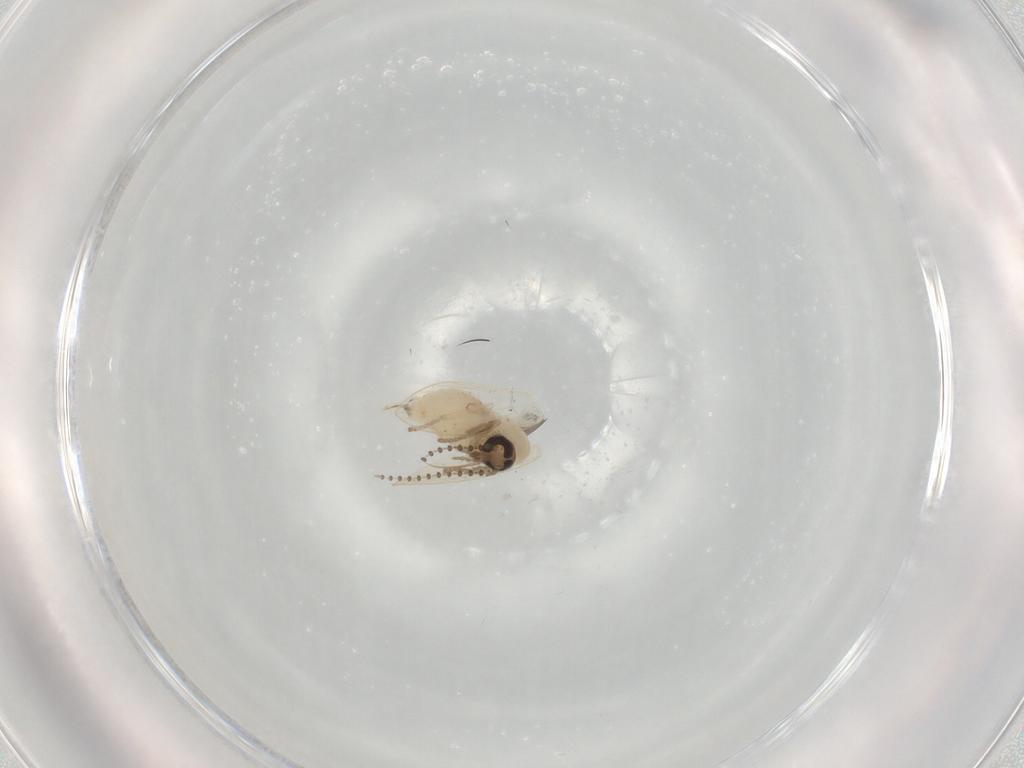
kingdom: Animalia
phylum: Arthropoda
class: Insecta
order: Diptera
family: Psychodidae
